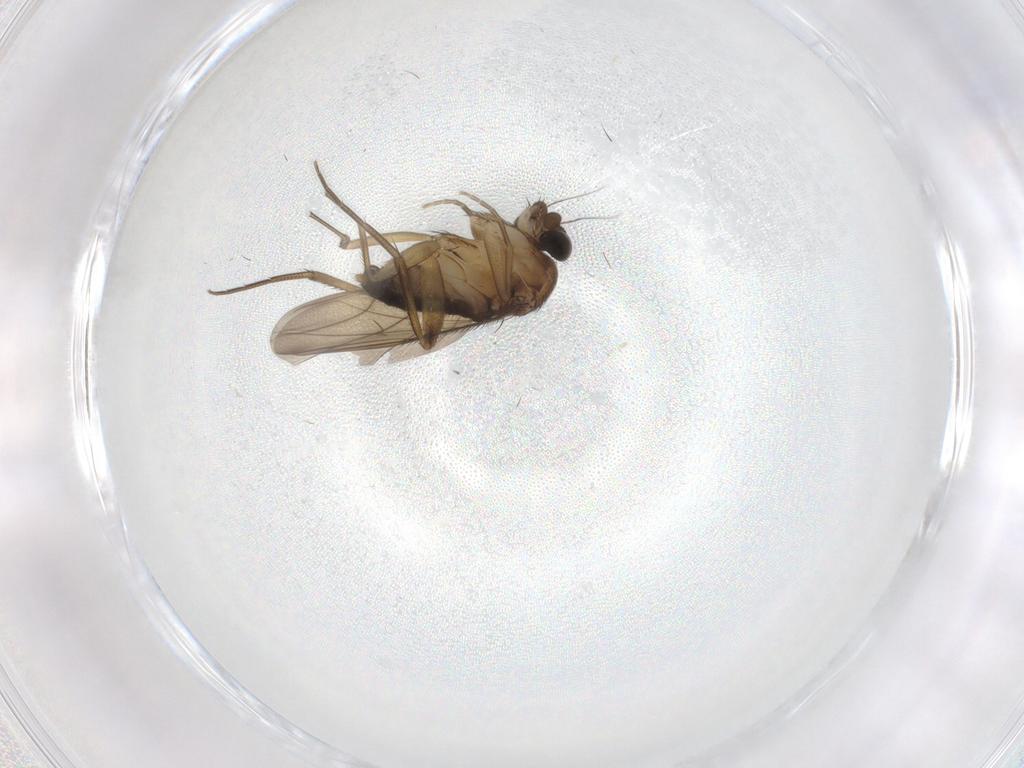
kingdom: Animalia
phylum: Arthropoda
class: Insecta
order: Diptera
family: Phoridae
